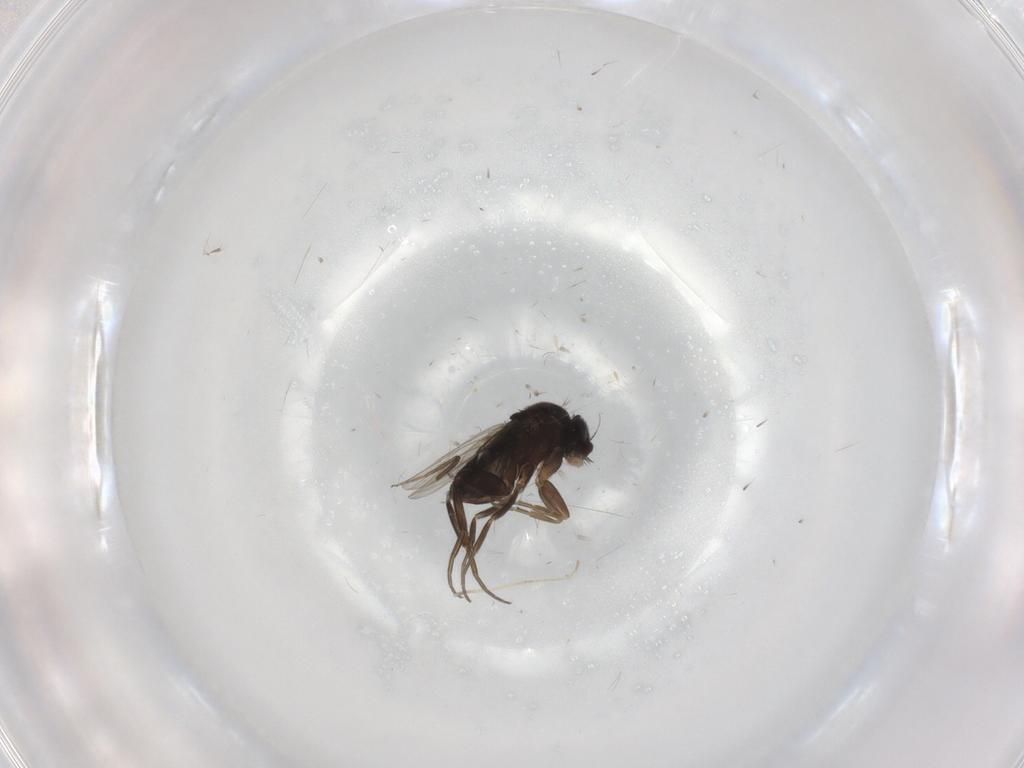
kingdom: Animalia
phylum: Arthropoda
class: Insecta
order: Diptera
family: Phoridae
